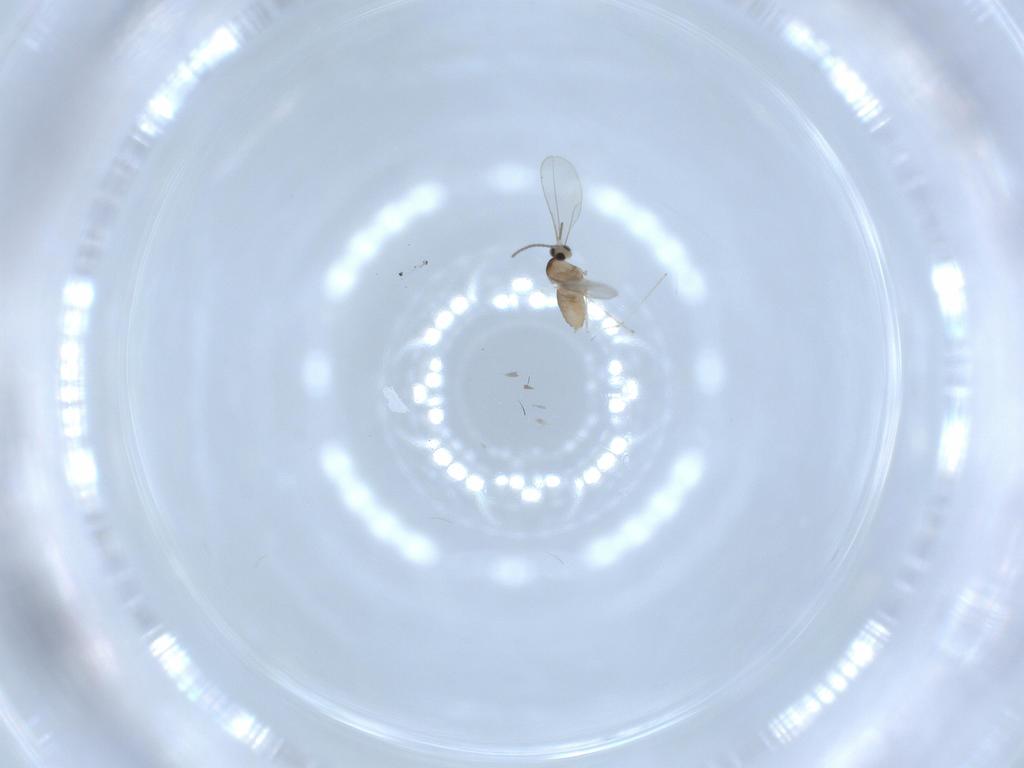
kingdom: Animalia
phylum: Arthropoda
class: Insecta
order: Diptera
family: Cecidomyiidae
